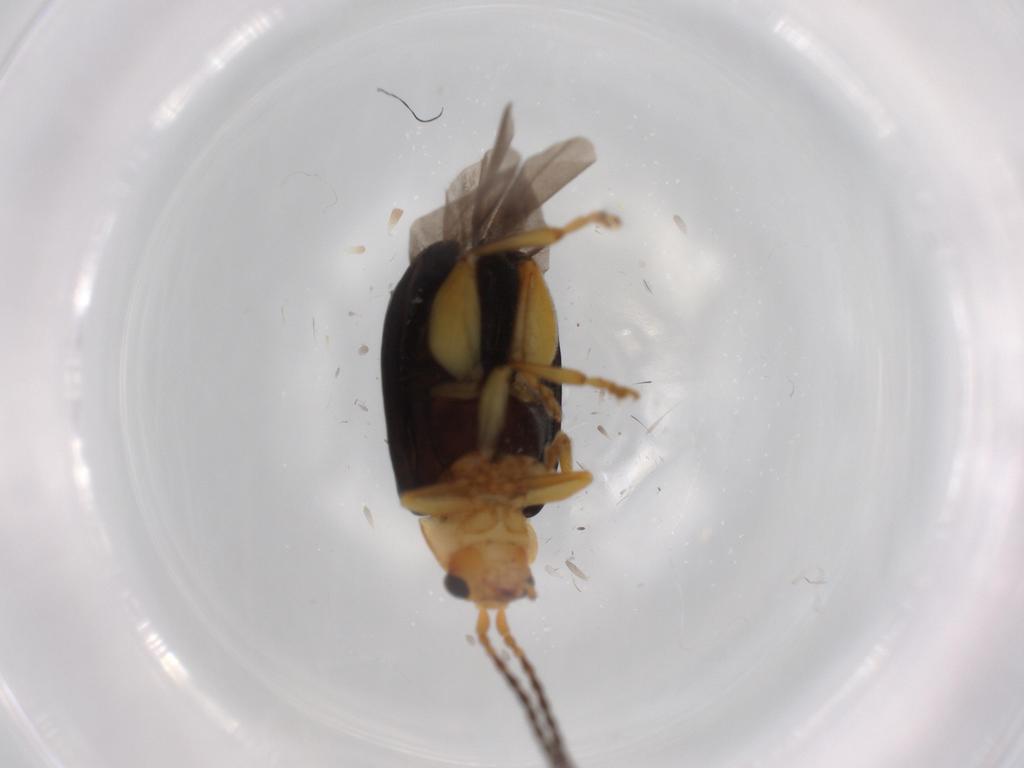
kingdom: Animalia
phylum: Arthropoda
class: Insecta
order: Coleoptera
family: Chrysomelidae
